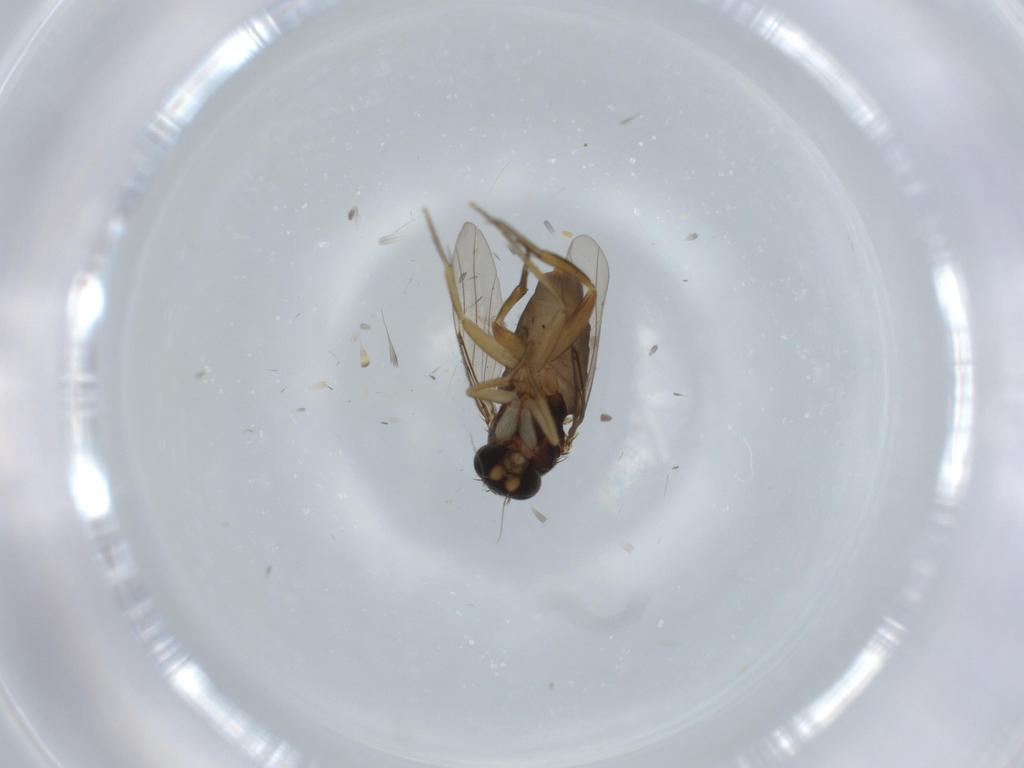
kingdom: Animalia
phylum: Arthropoda
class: Insecta
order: Diptera
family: Phoridae
